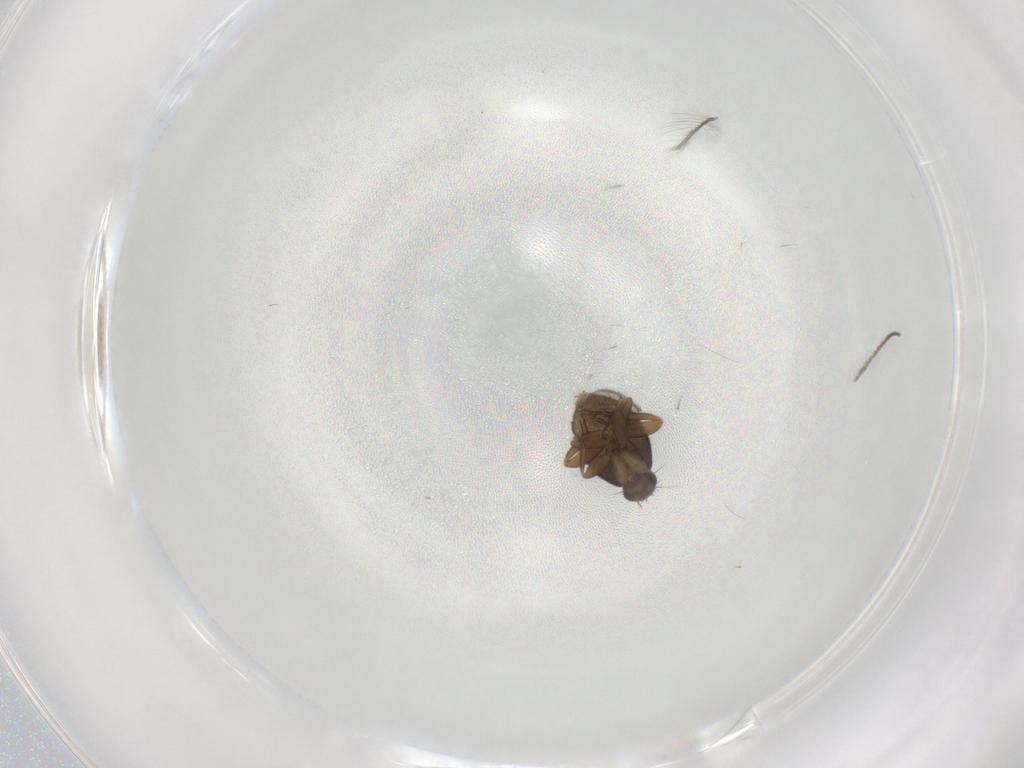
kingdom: Animalia
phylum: Arthropoda
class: Insecta
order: Diptera
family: Phoridae
